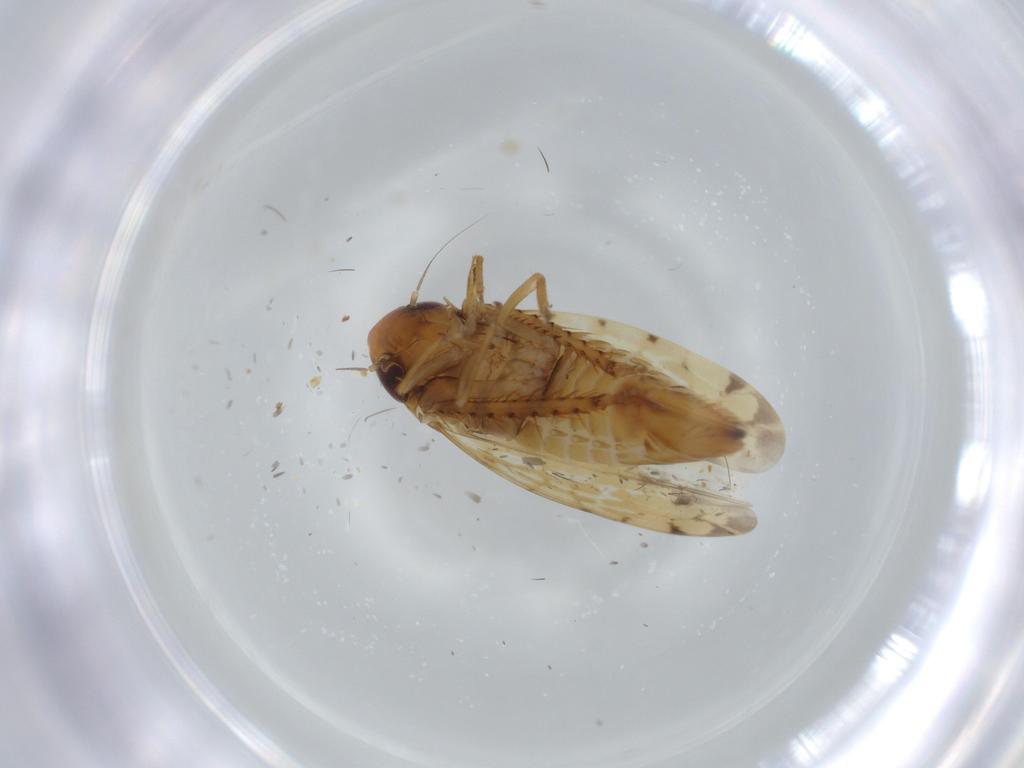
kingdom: Animalia
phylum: Arthropoda
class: Insecta
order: Hemiptera
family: Cicadellidae
